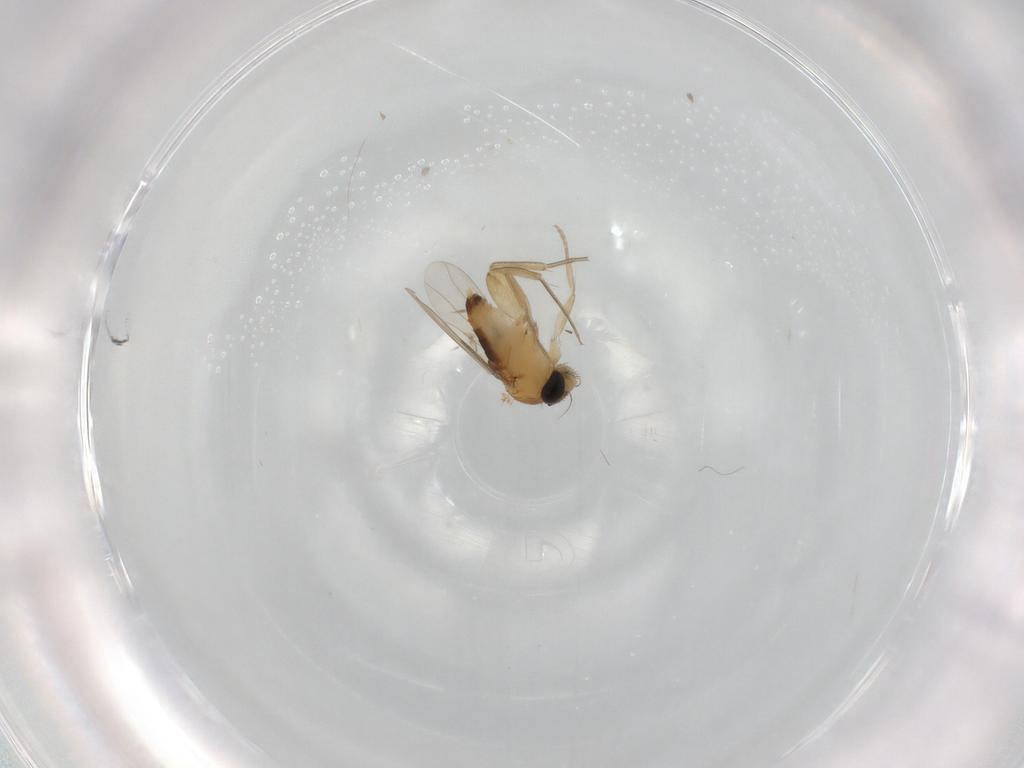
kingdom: Animalia
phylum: Arthropoda
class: Insecta
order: Diptera
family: Phoridae
